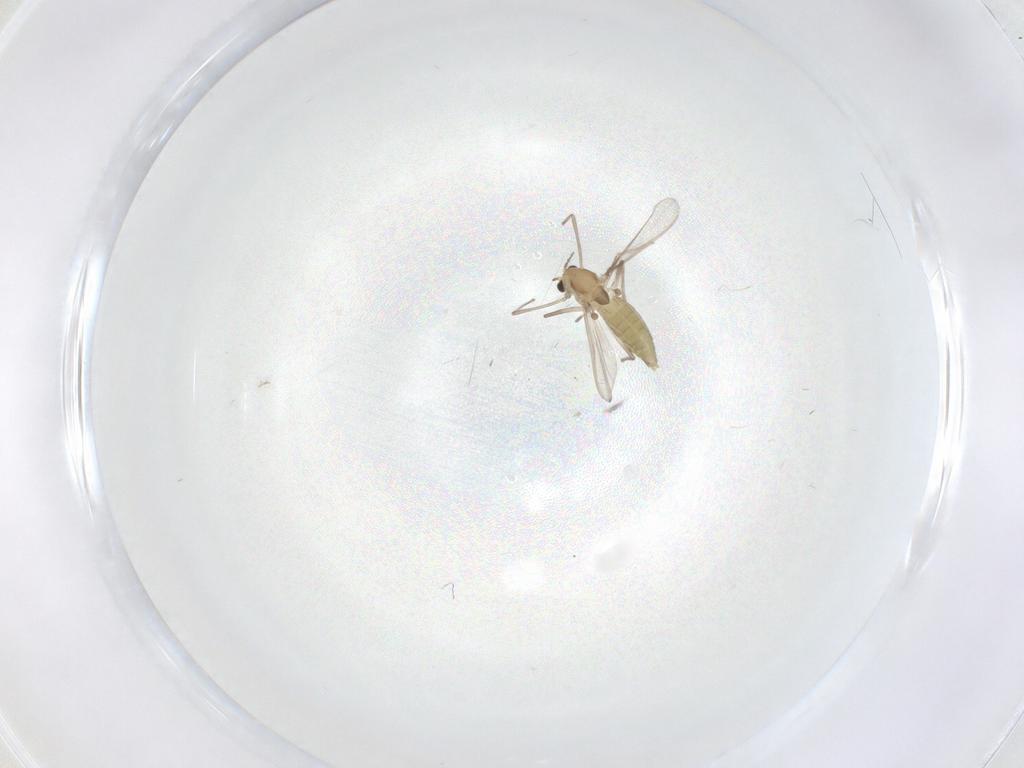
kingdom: Animalia
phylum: Arthropoda
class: Insecta
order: Diptera
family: Chironomidae
